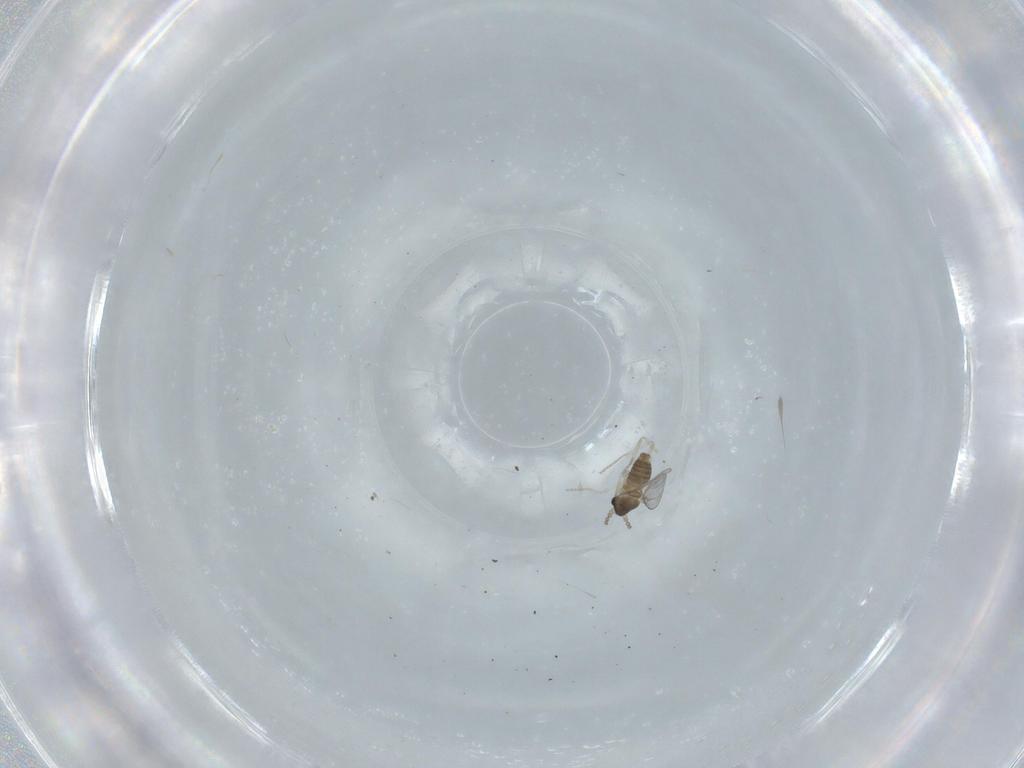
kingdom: Animalia
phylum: Arthropoda
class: Insecta
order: Diptera
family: Cecidomyiidae
